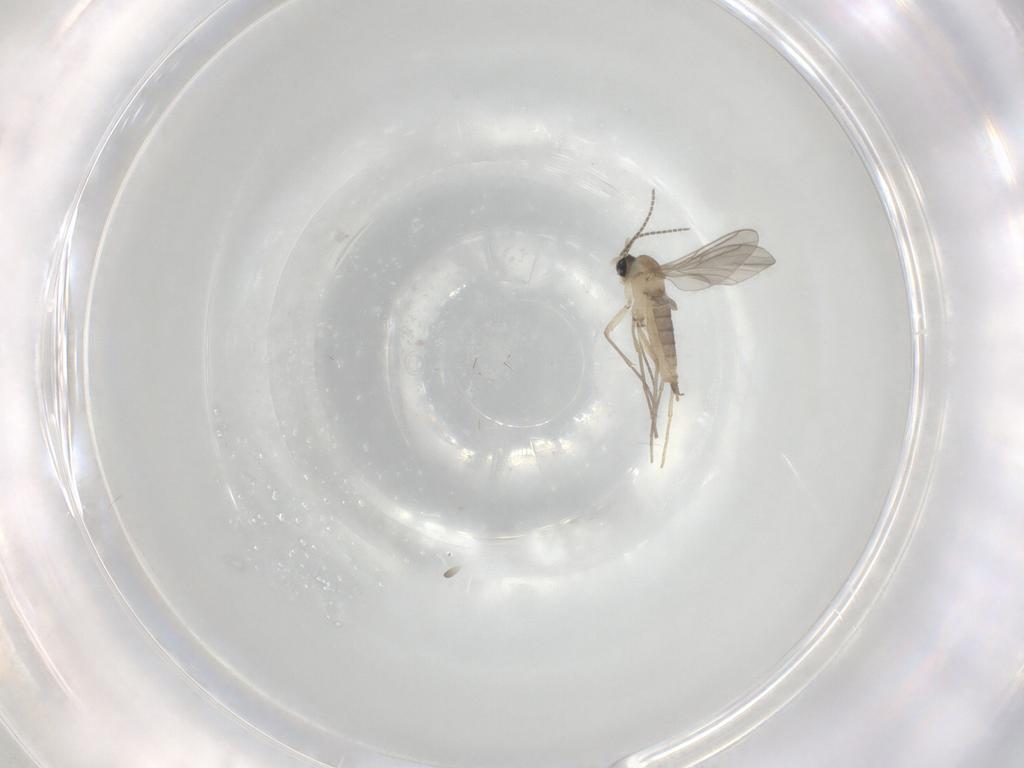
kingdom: Animalia
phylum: Arthropoda
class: Insecta
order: Diptera
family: Sciaridae
